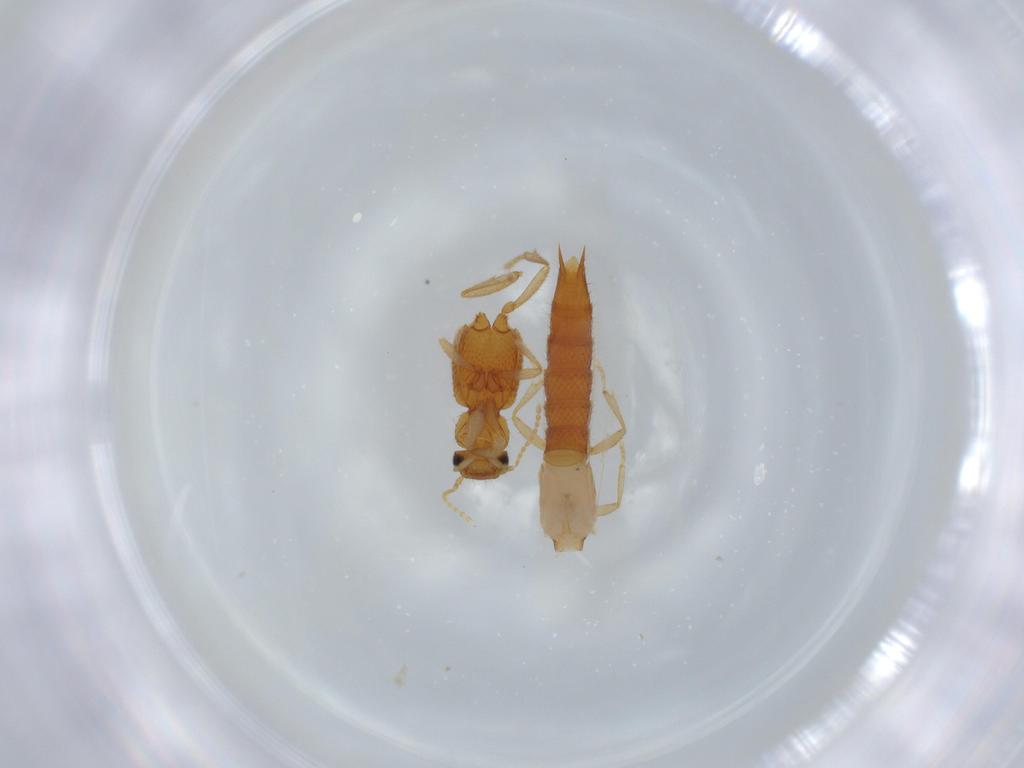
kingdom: Animalia
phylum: Arthropoda
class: Insecta
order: Coleoptera
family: Staphylinidae
